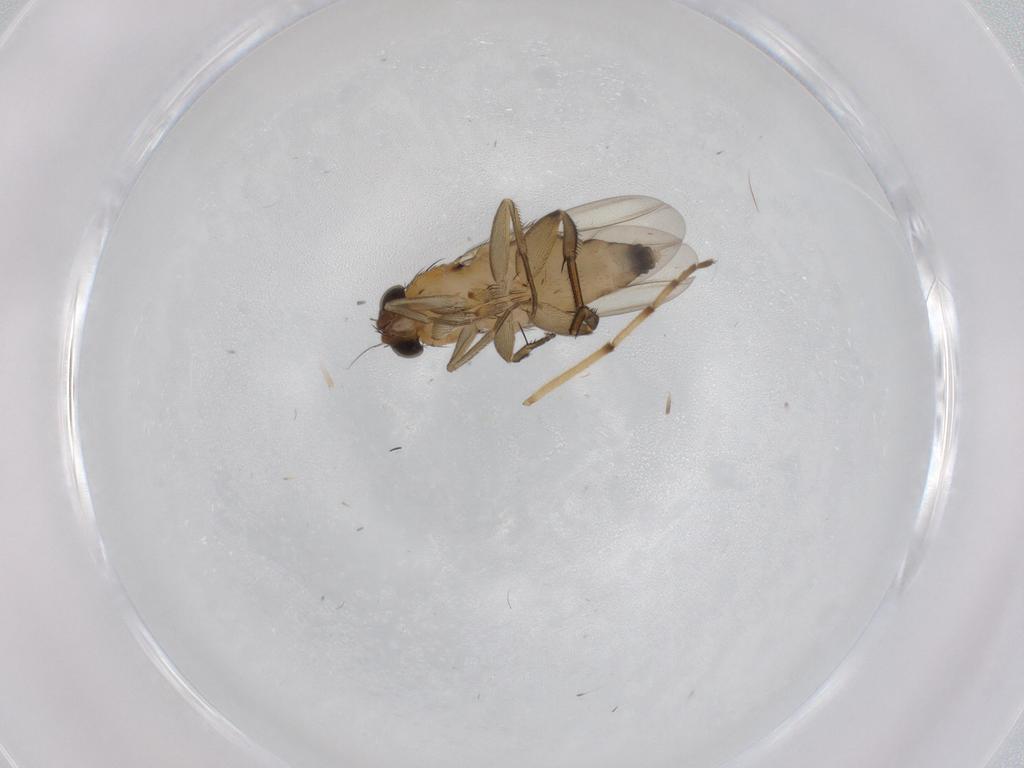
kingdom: Animalia
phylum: Arthropoda
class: Insecta
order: Diptera
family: Phoridae
